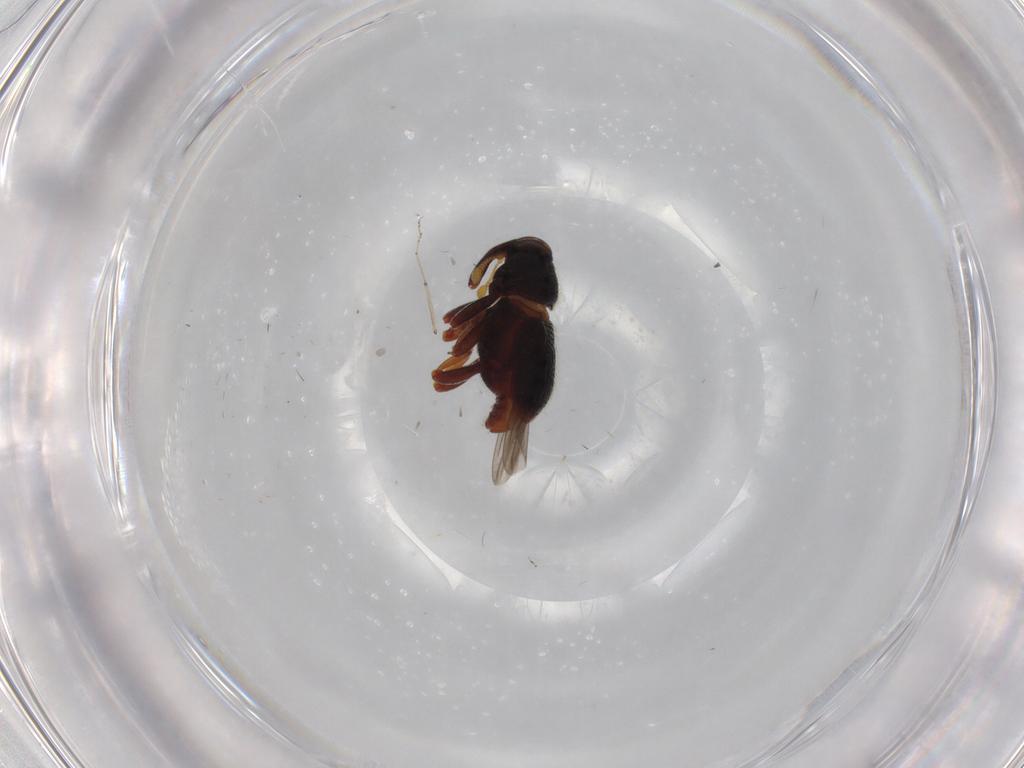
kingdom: Animalia
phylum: Arthropoda
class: Insecta
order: Coleoptera
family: Curculionidae
